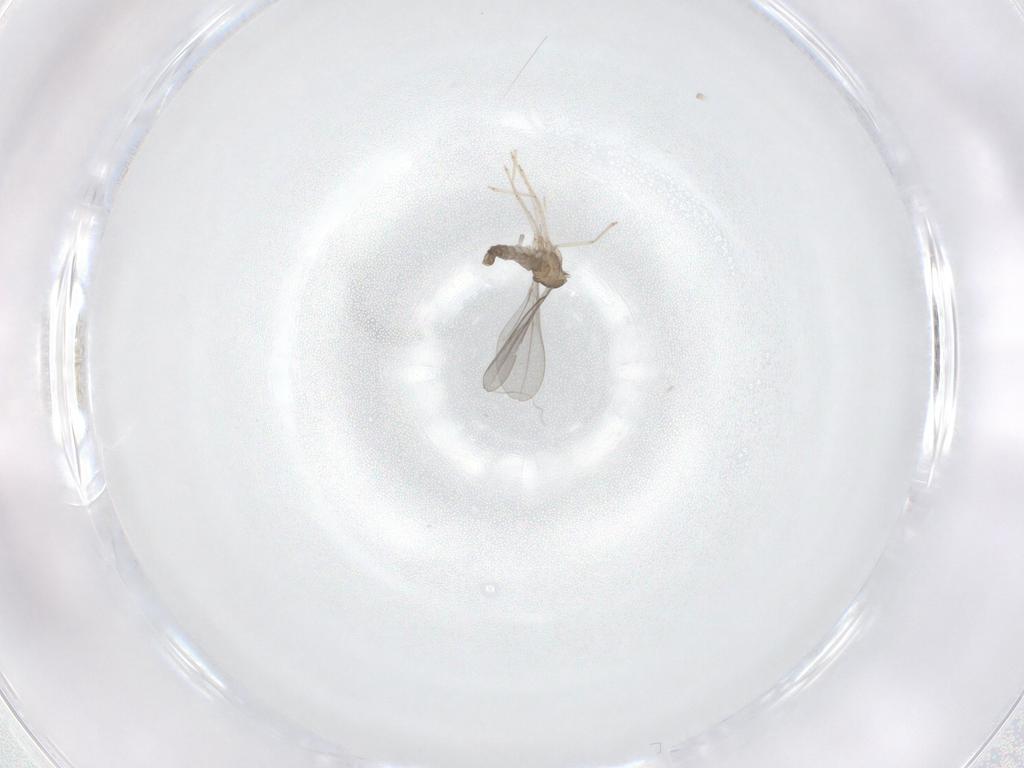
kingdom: Animalia
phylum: Arthropoda
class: Insecta
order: Diptera
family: Cecidomyiidae
